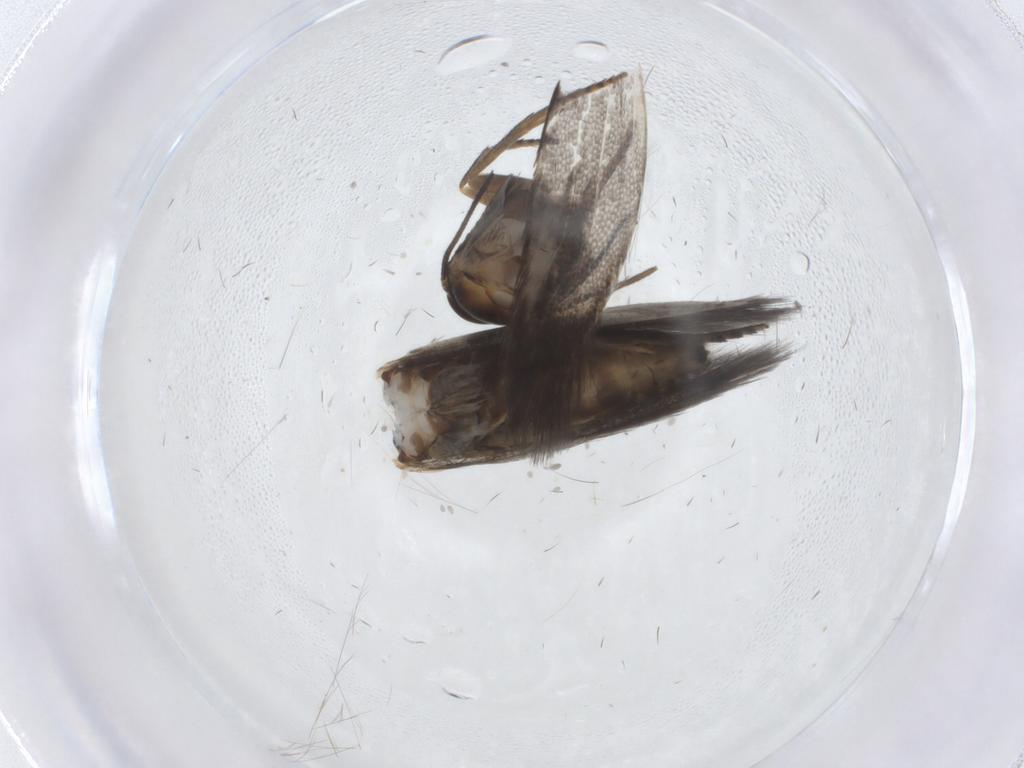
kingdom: Animalia
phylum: Arthropoda
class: Insecta
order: Lepidoptera
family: Heliozelidae
